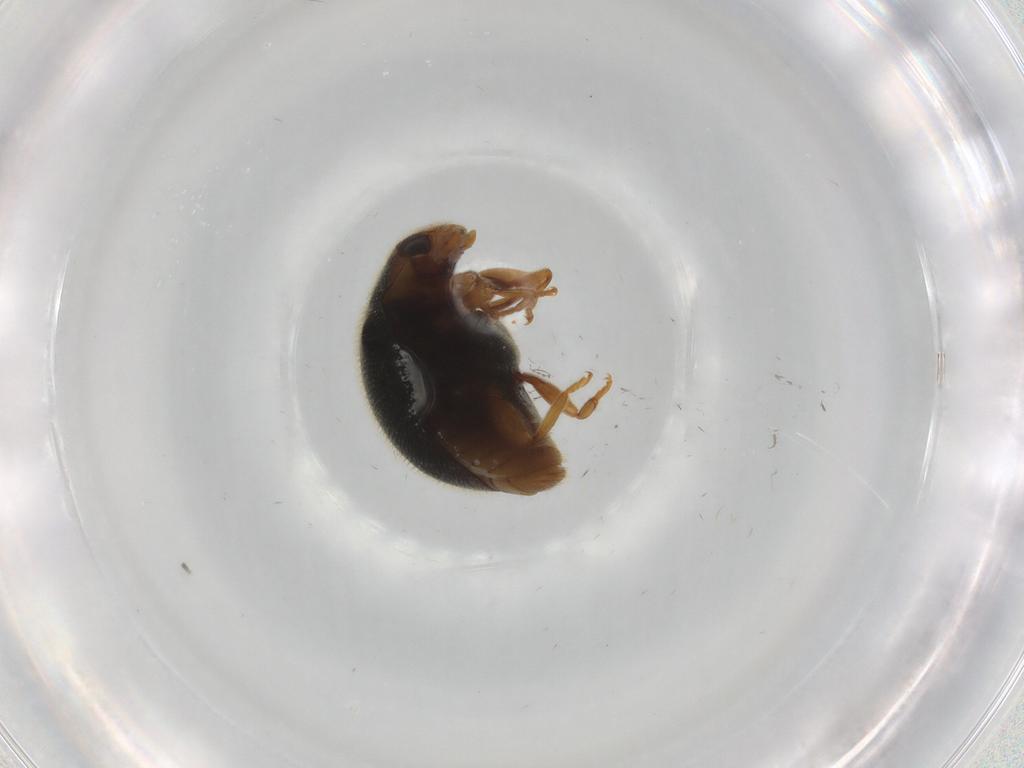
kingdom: Animalia
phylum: Arthropoda
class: Insecta
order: Coleoptera
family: Coccinellidae
